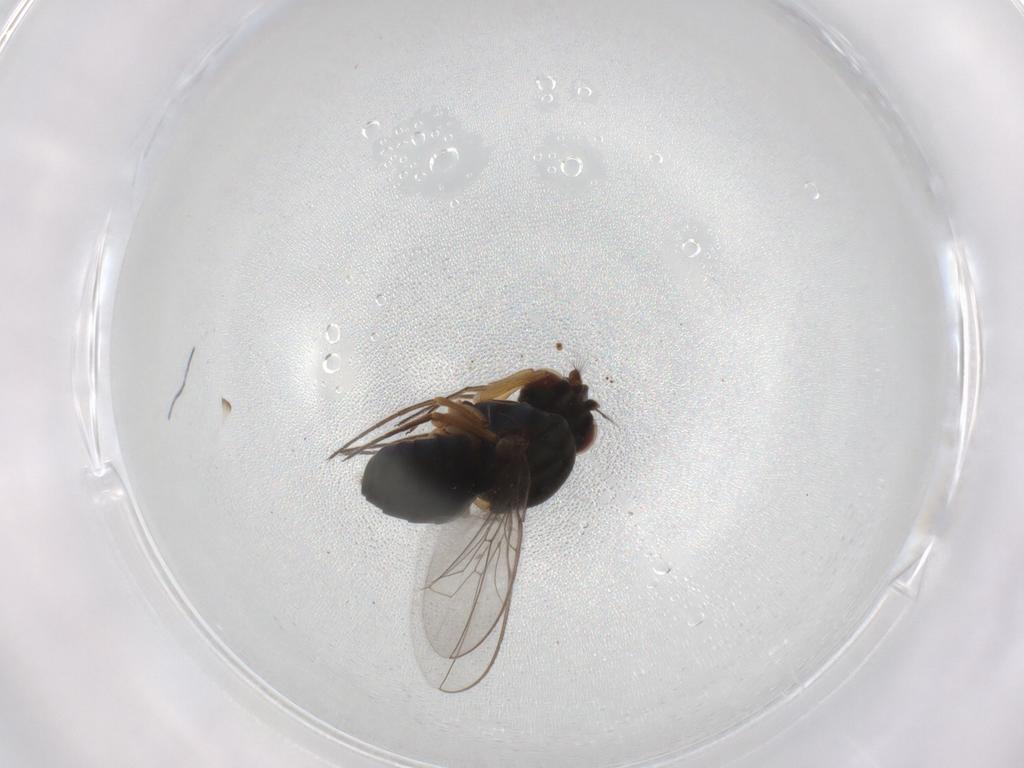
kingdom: Animalia
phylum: Arthropoda
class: Insecta
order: Diptera
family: Ephydridae
